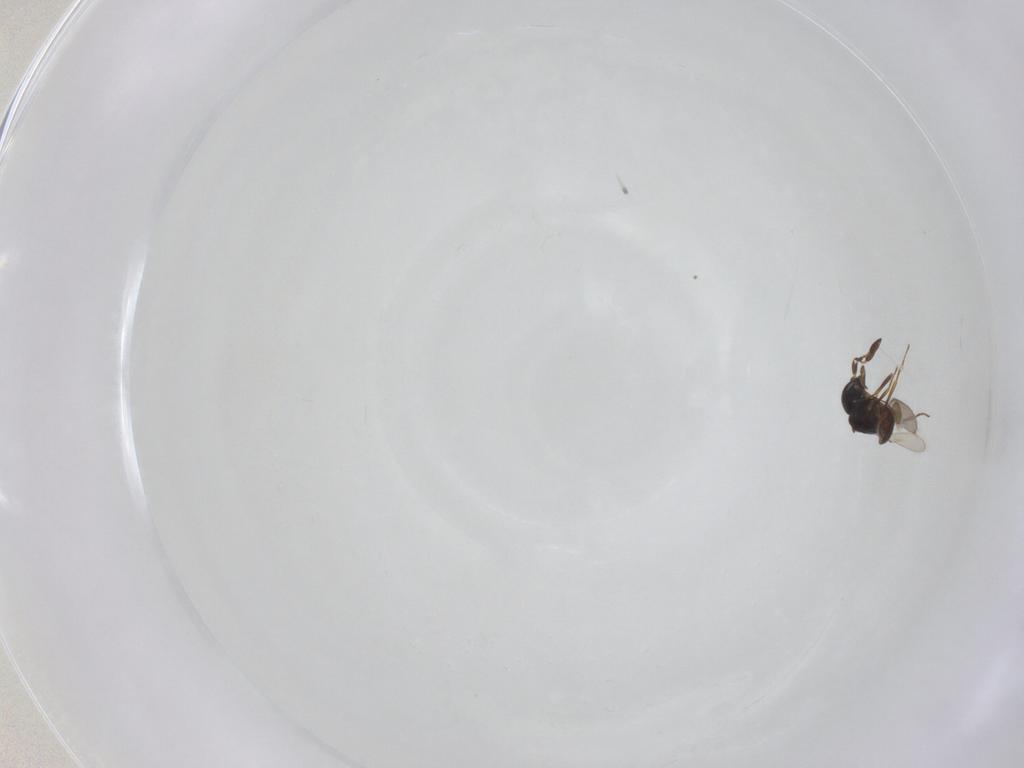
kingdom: Animalia
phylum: Arthropoda
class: Arachnida
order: Araneae
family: Pholcidae
